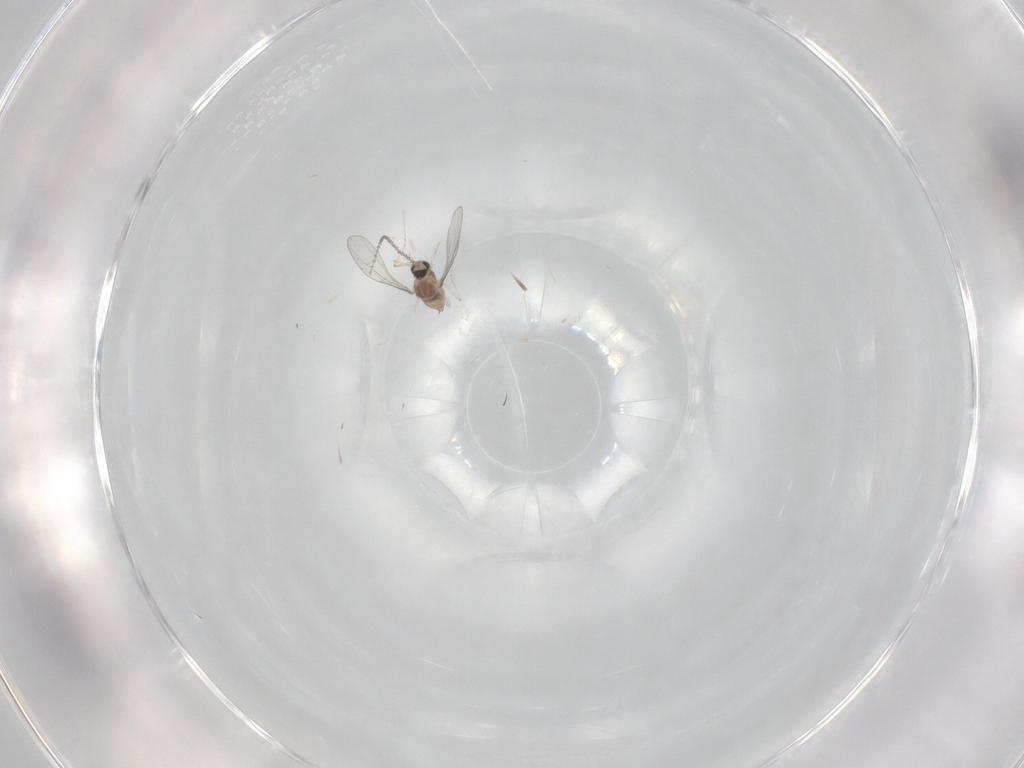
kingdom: Animalia
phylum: Arthropoda
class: Insecta
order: Diptera
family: Cecidomyiidae
